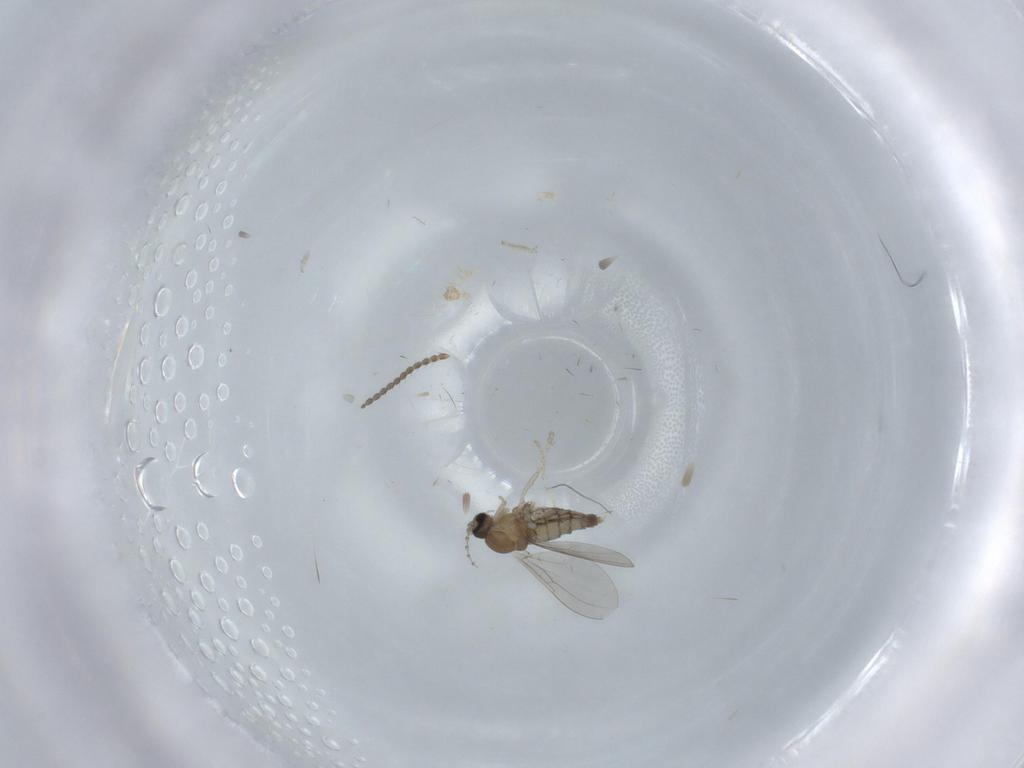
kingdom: Animalia
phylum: Arthropoda
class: Insecta
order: Diptera
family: Cecidomyiidae
